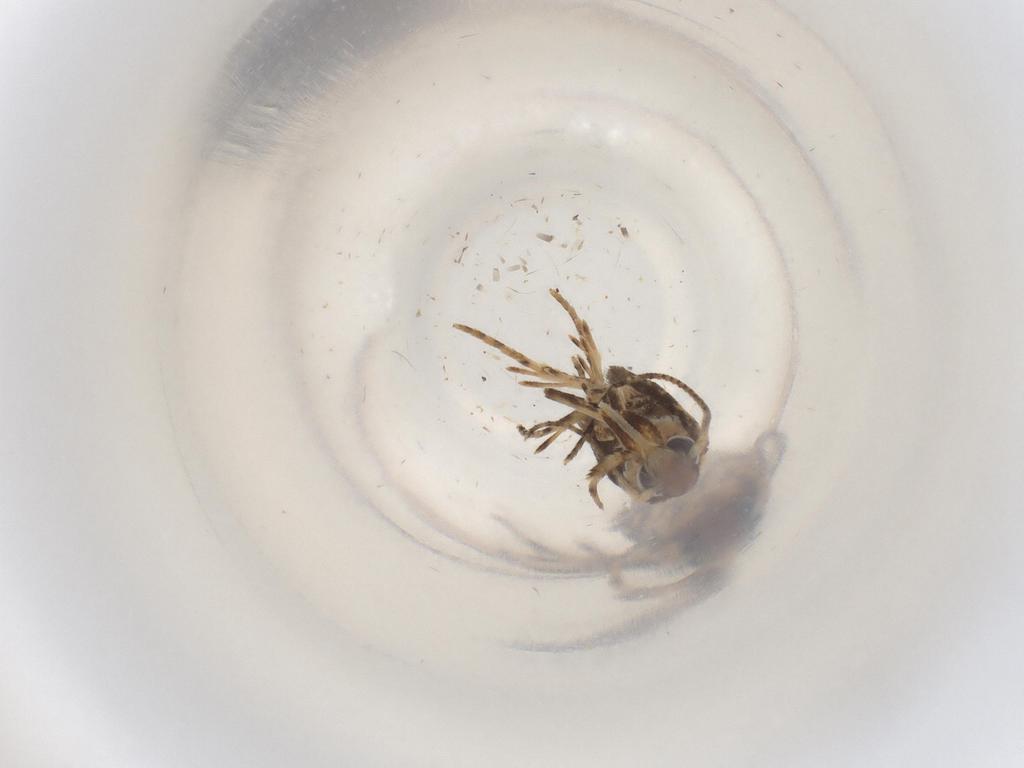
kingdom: Animalia
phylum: Arthropoda
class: Insecta
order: Lepidoptera
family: Plutellidae
